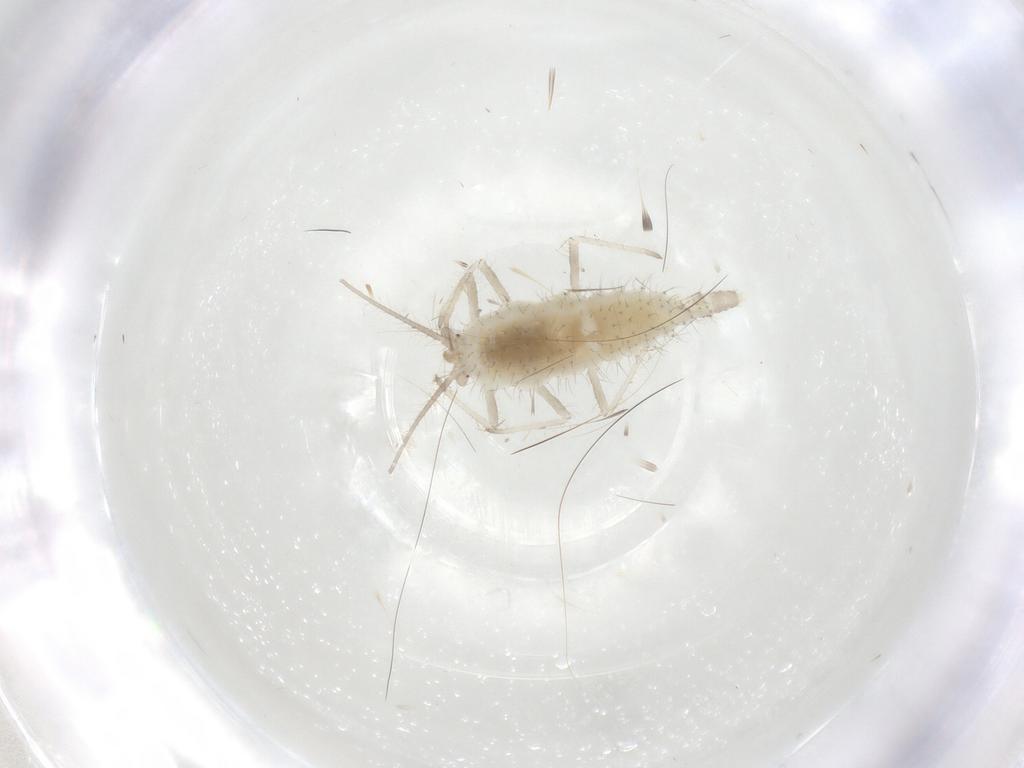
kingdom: Animalia
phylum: Arthropoda
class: Insecta
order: Neuroptera
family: Coniopterygidae
